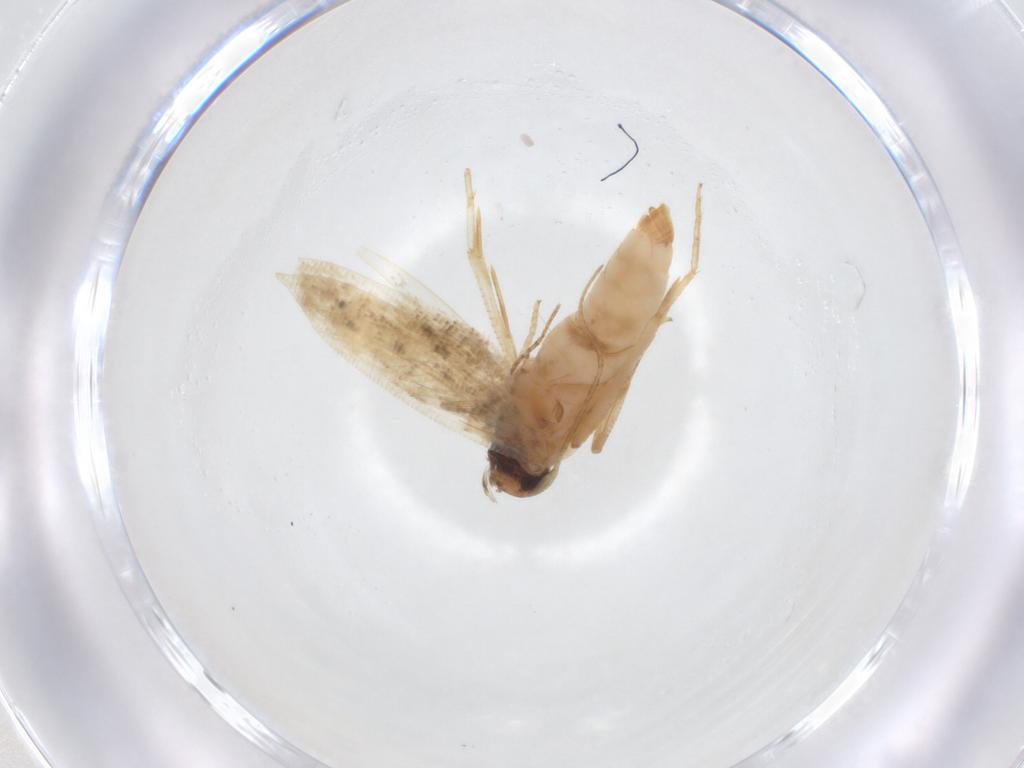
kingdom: Animalia
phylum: Arthropoda
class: Insecta
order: Lepidoptera
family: Gelechiidae
